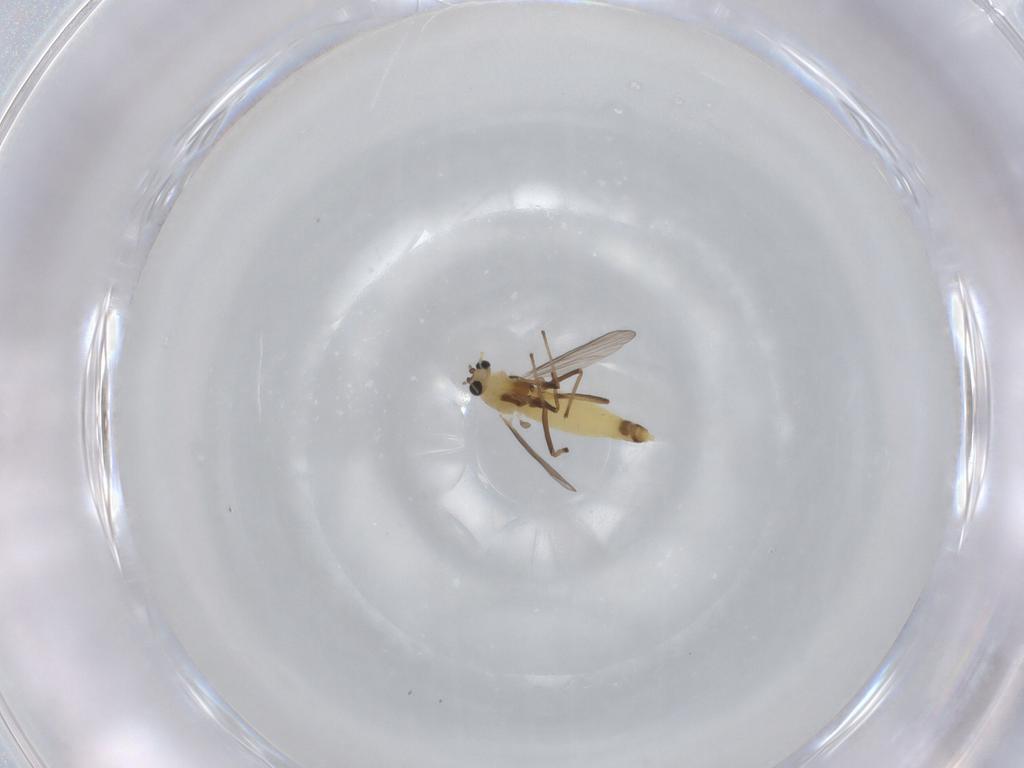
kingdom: Animalia
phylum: Arthropoda
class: Insecta
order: Diptera
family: Chironomidae
